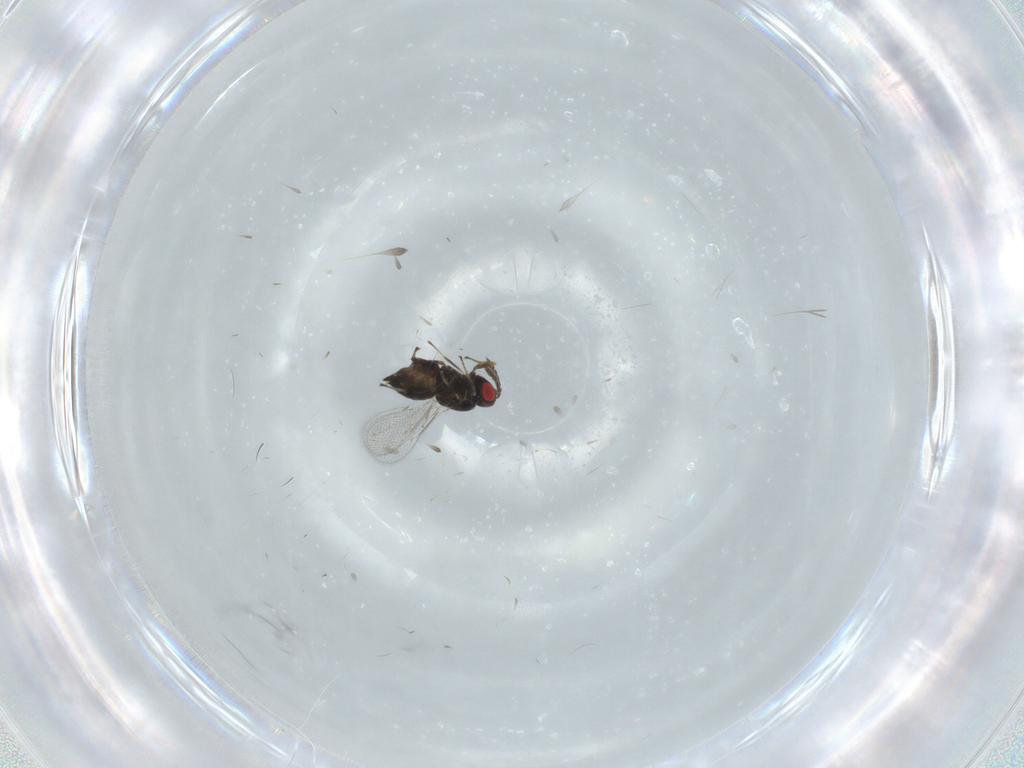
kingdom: Animalia
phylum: Arthropoda
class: Insecta
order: Hymenoptera
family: Eulophidae
